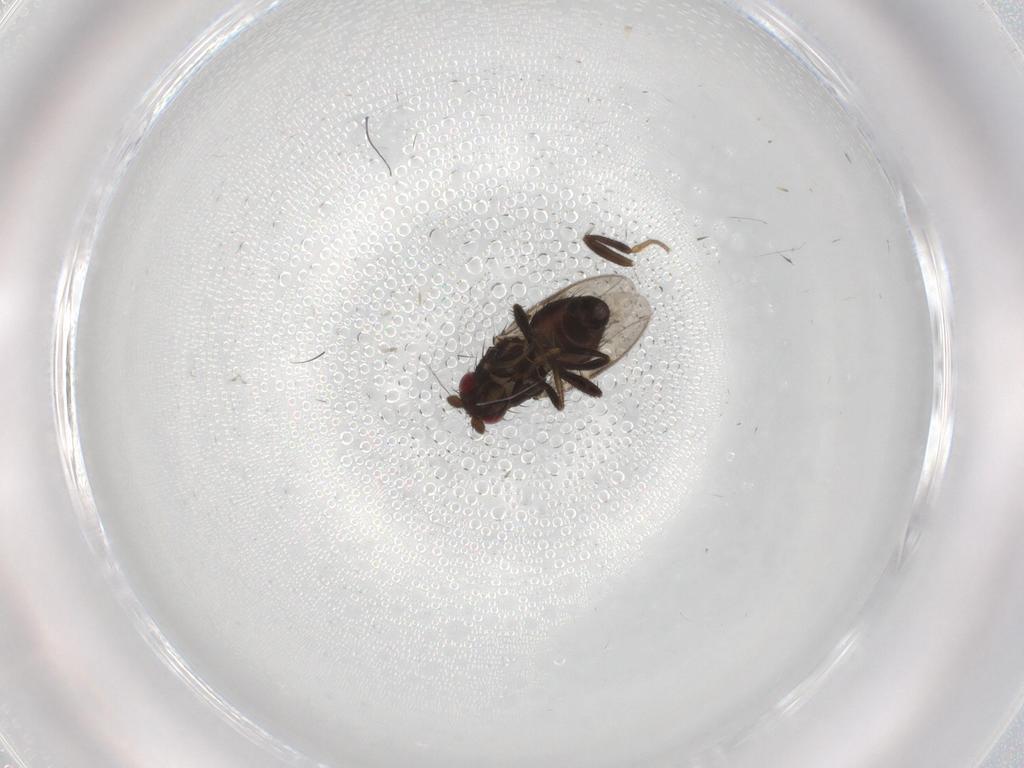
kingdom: Animalia
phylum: Arthropoda
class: Insecta
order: Diptera
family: Sphaeroceridae
